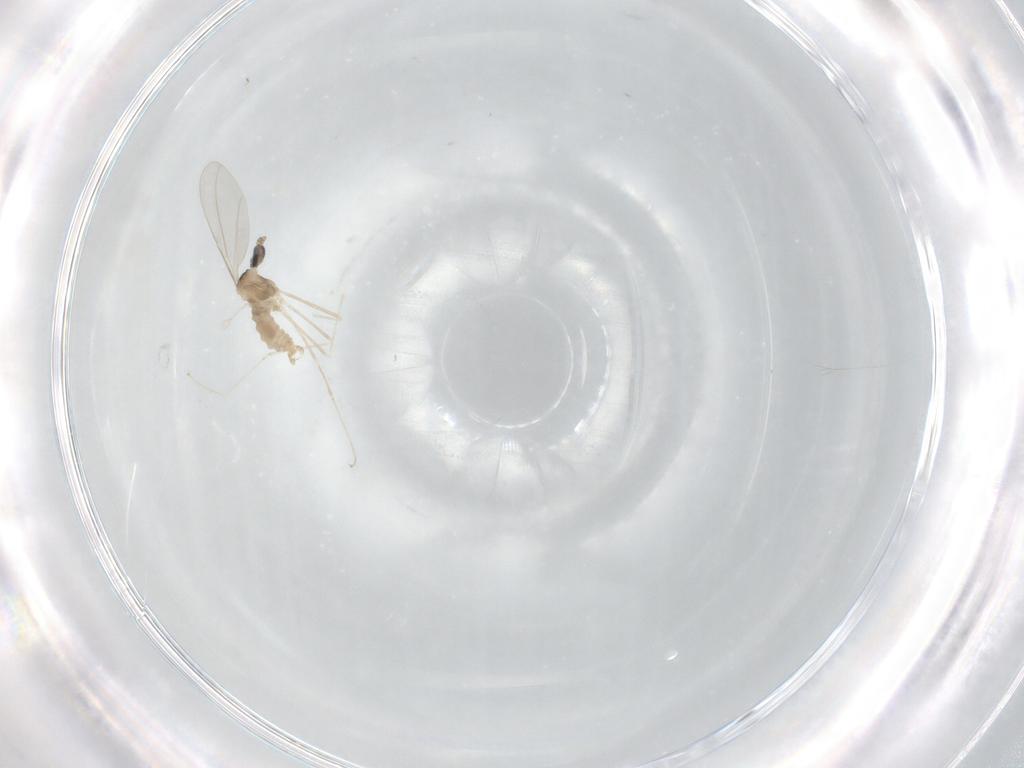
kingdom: Animalia
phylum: Arthropoda
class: Insecta
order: Diptera
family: Cecidomyiidae
